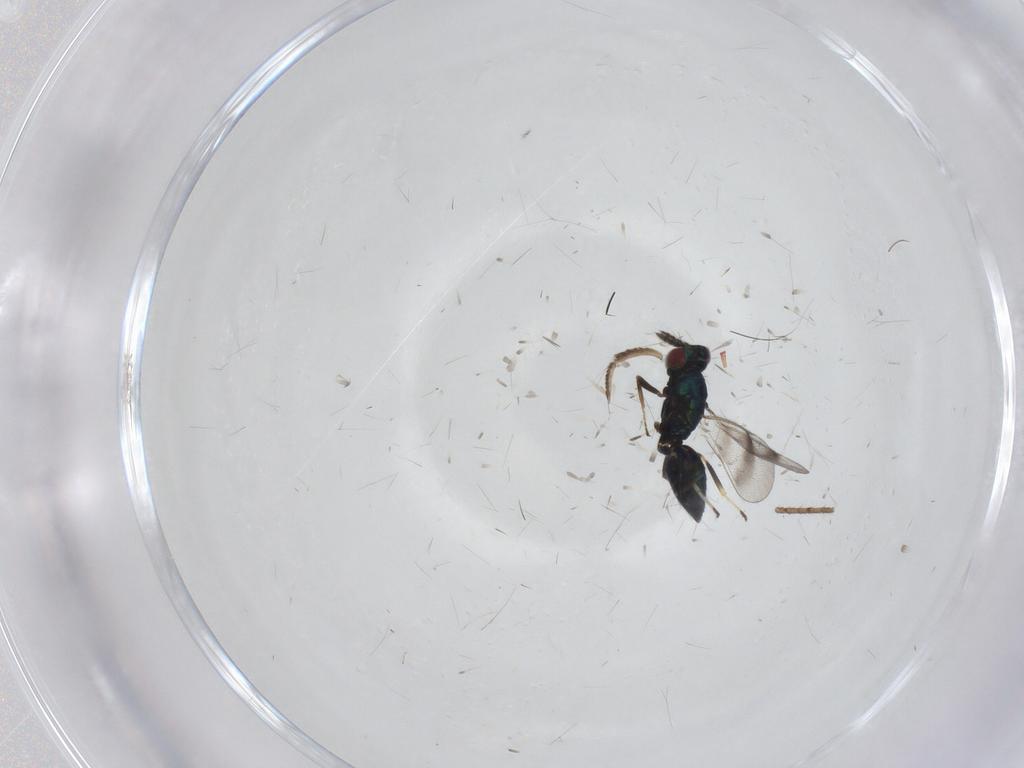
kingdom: Animalia
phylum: Arthropoda
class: Insecta
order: Hymenoptera
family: Eulophidae
